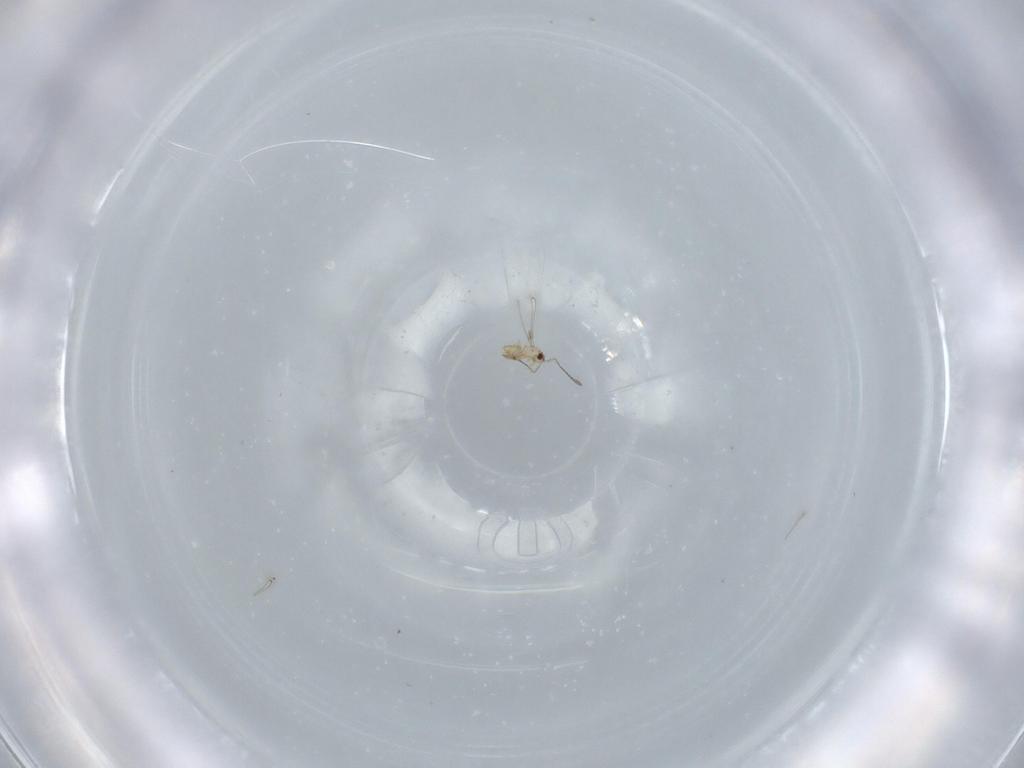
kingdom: Animalia
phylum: Arthropoda
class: Insecta
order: Hymenoptera
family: Mymaridae
